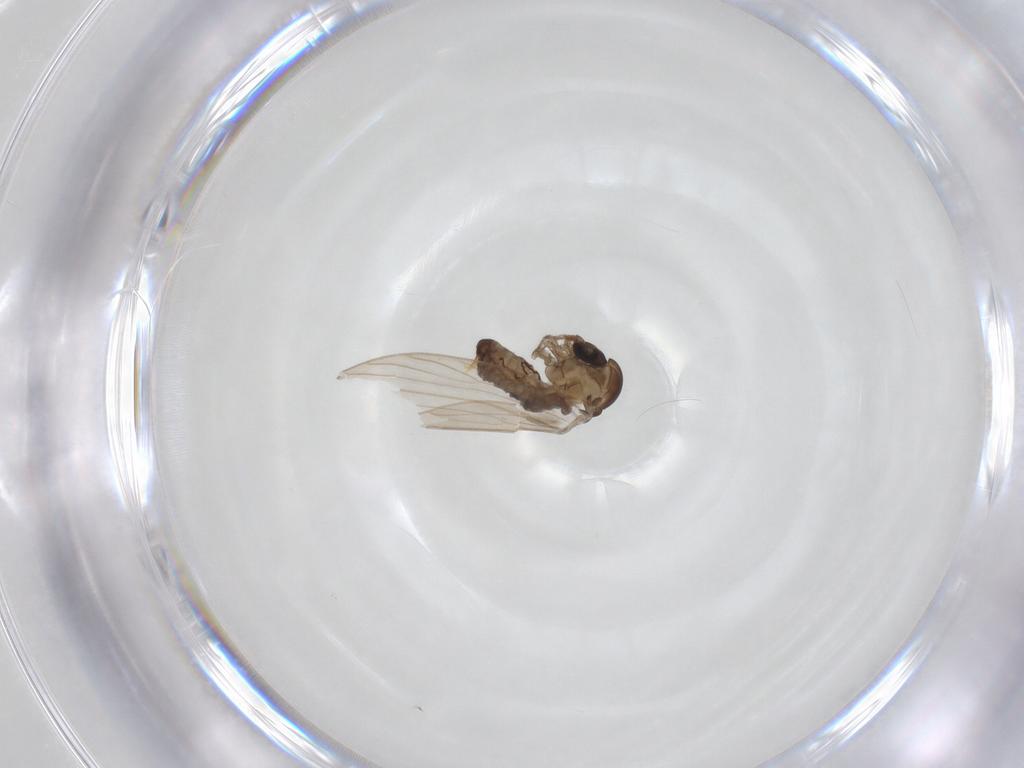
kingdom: Animalia
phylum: Arthropoda
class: Insecta
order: Diptera
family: Psychodidae
